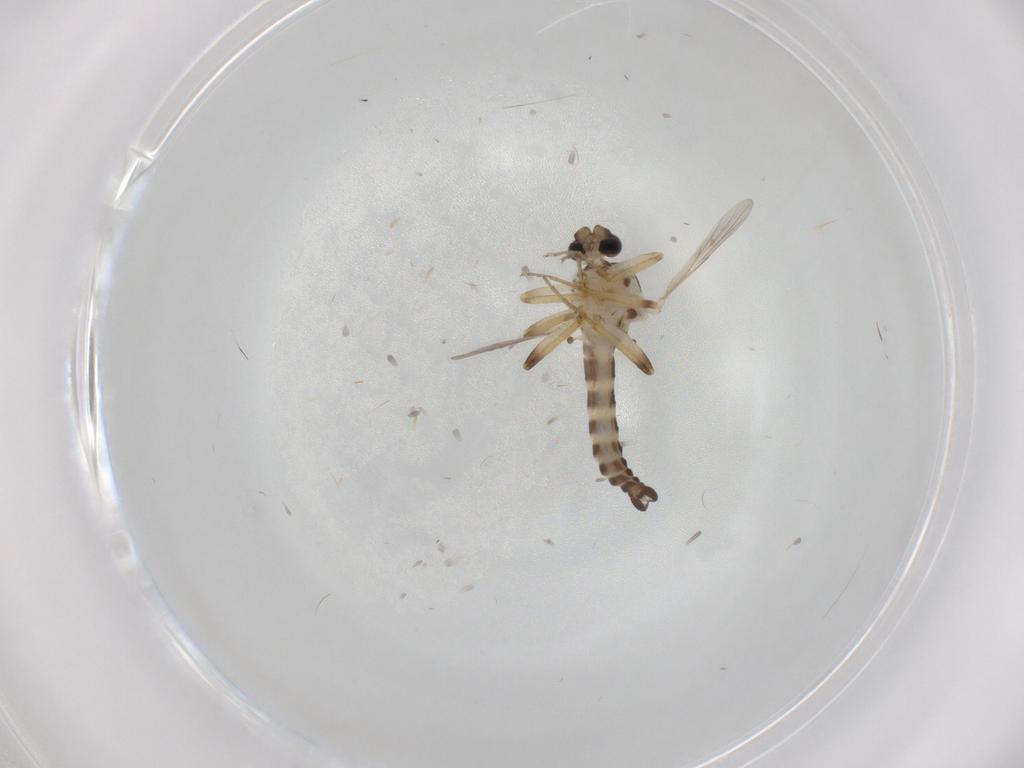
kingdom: Animalia
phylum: Arthropoda
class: Insecta
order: Diptera
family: Ceratopogonidae
